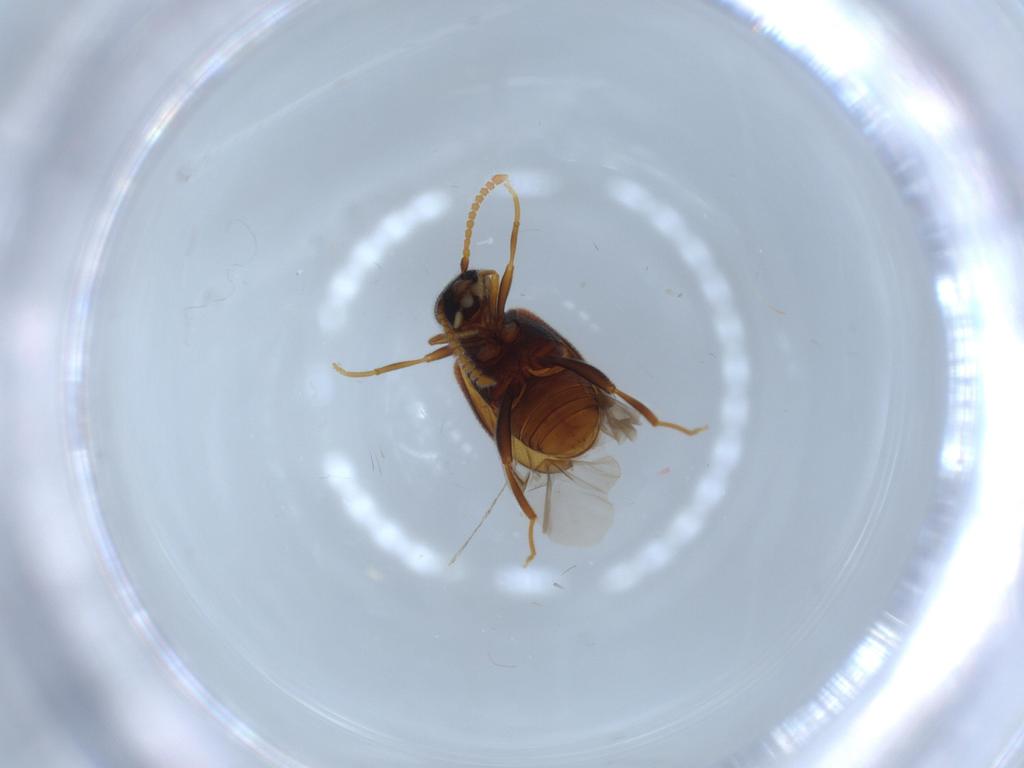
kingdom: Animalia
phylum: Arthropoda
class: Insecta
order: Coleoptera
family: Aderidae
